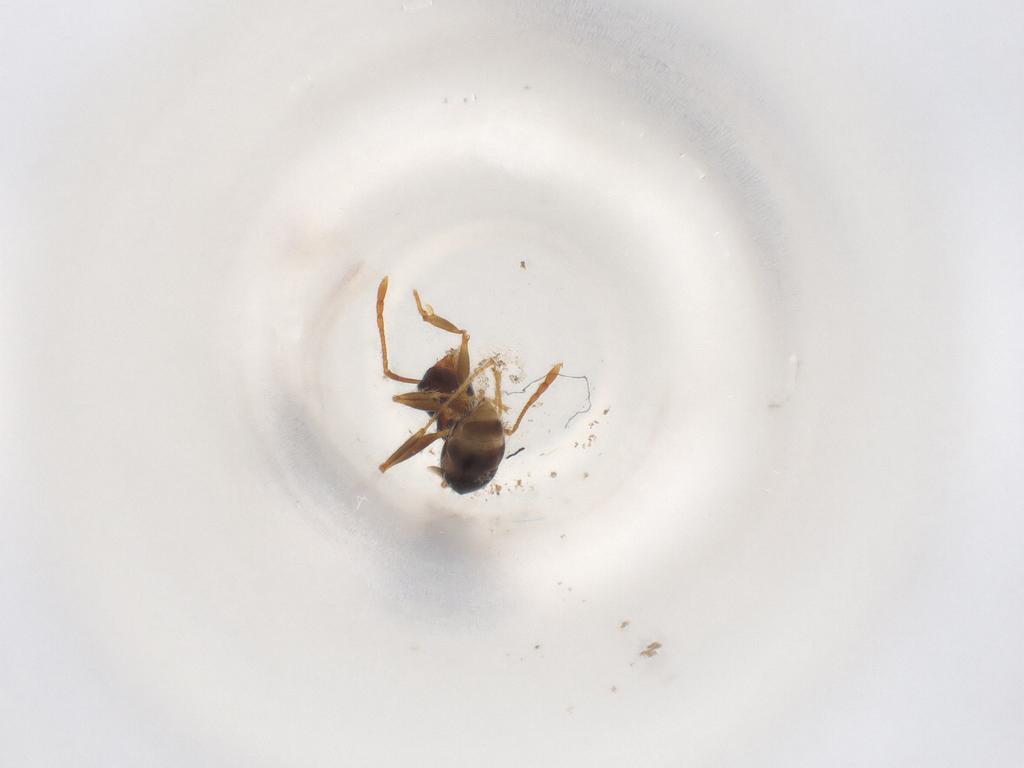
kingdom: Animalia
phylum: Arthropoda
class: Insecta
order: Hymenoptera
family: Formicidae
